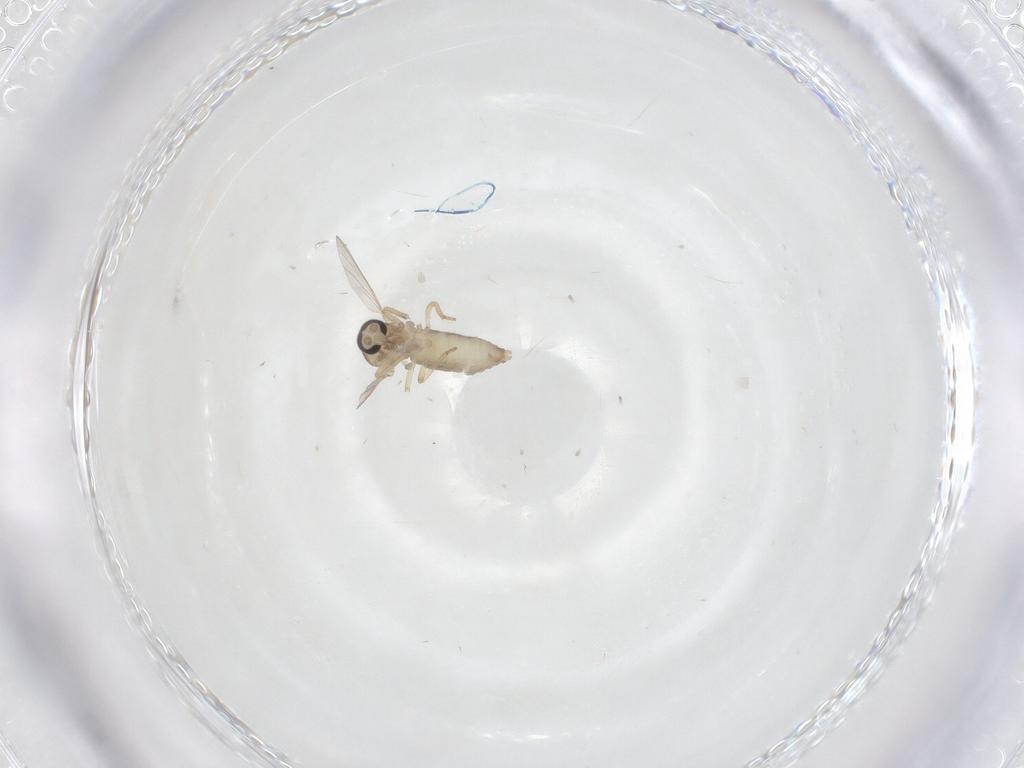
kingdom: Animalia
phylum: Arthropoda
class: Insecta
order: Diptera
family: Ceratopogonidae
